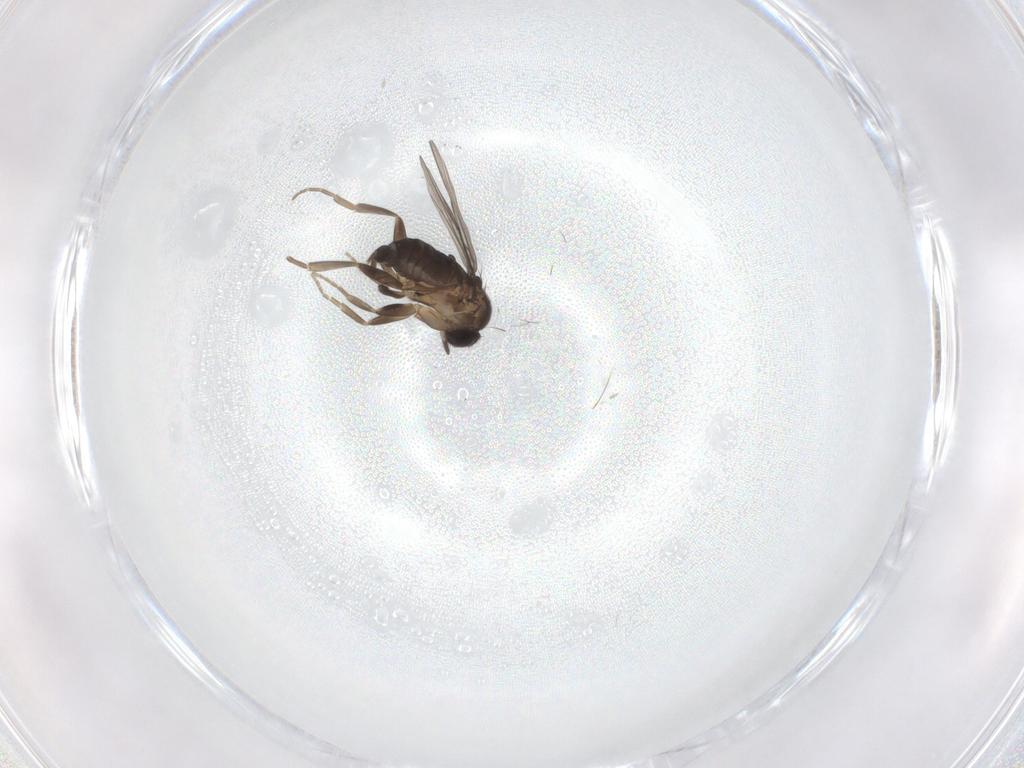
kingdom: Animalia
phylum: Arthropoda
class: Insecta
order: Diptera
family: Phoridae
